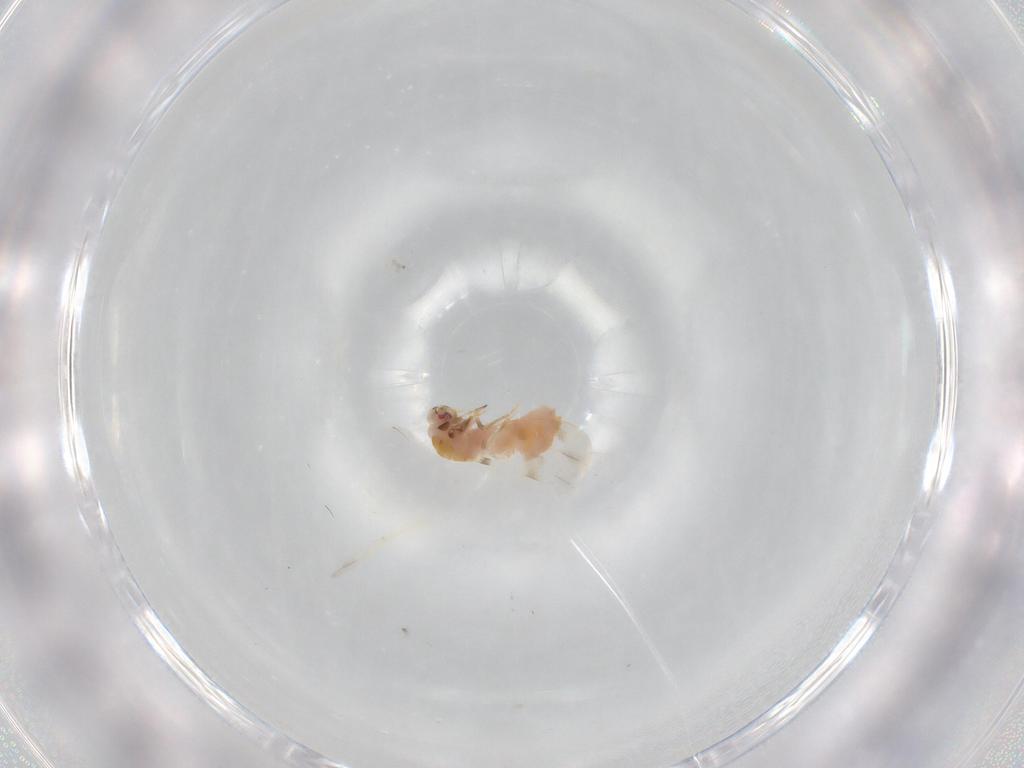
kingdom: Animalia
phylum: Arthropoda
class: Insecta
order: Hemiptera
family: Aleyrodidae
